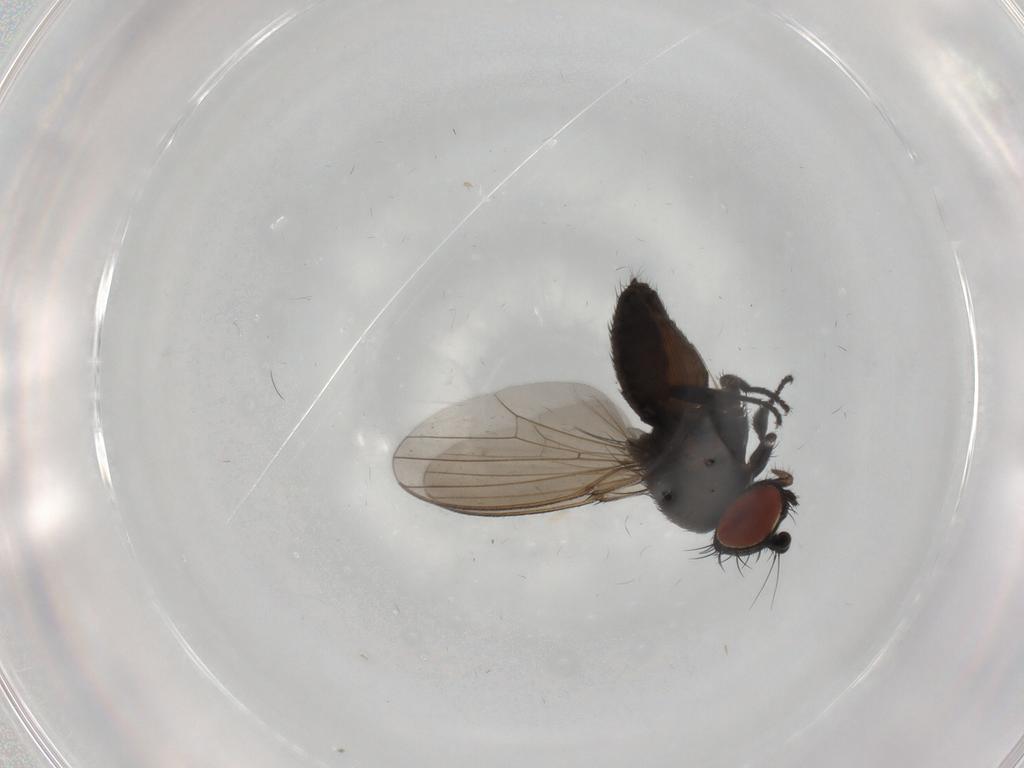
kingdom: Animalia
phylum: Arthropoda
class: Insecta
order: Diptera
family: Milichiidae
